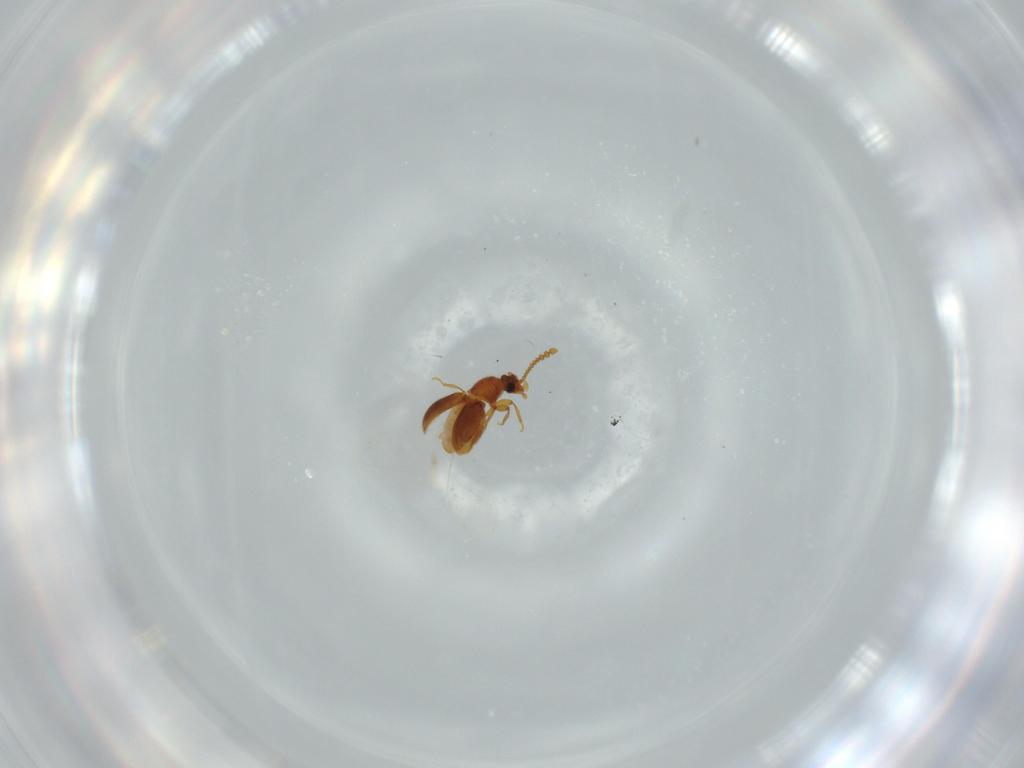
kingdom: Animalia
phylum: Arthropoda
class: Insecta
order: Coleoptera
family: Staphylinidae
